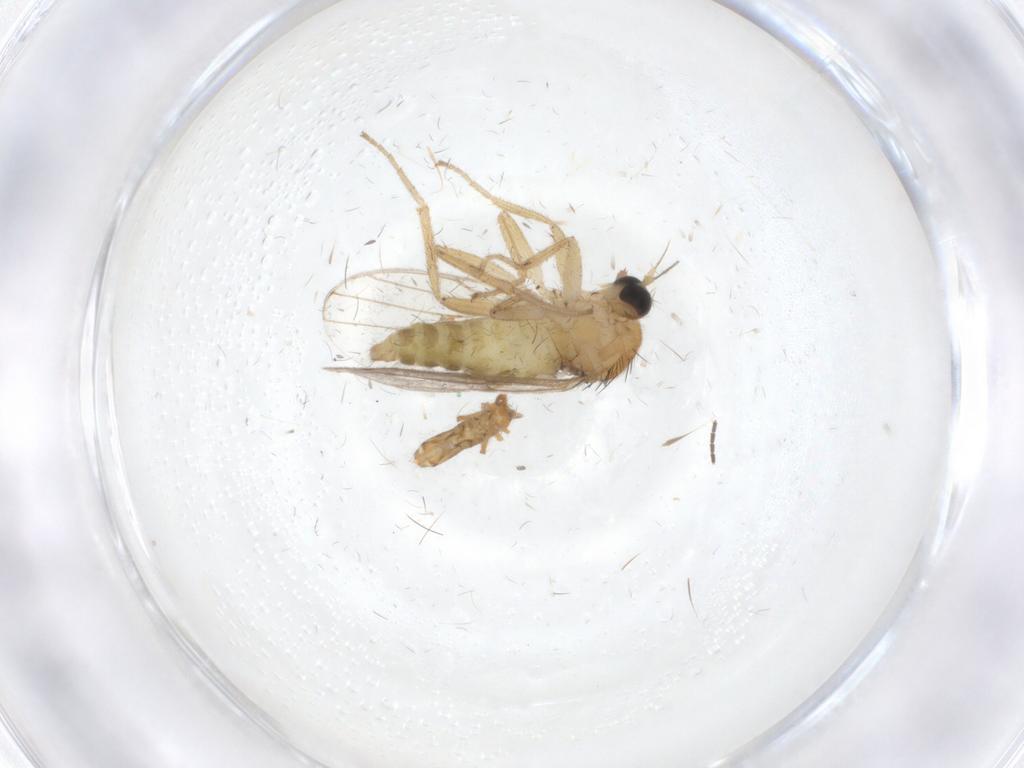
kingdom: Animalia
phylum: Arthropoda
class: Insecta
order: Diptera
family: Hybotidae
